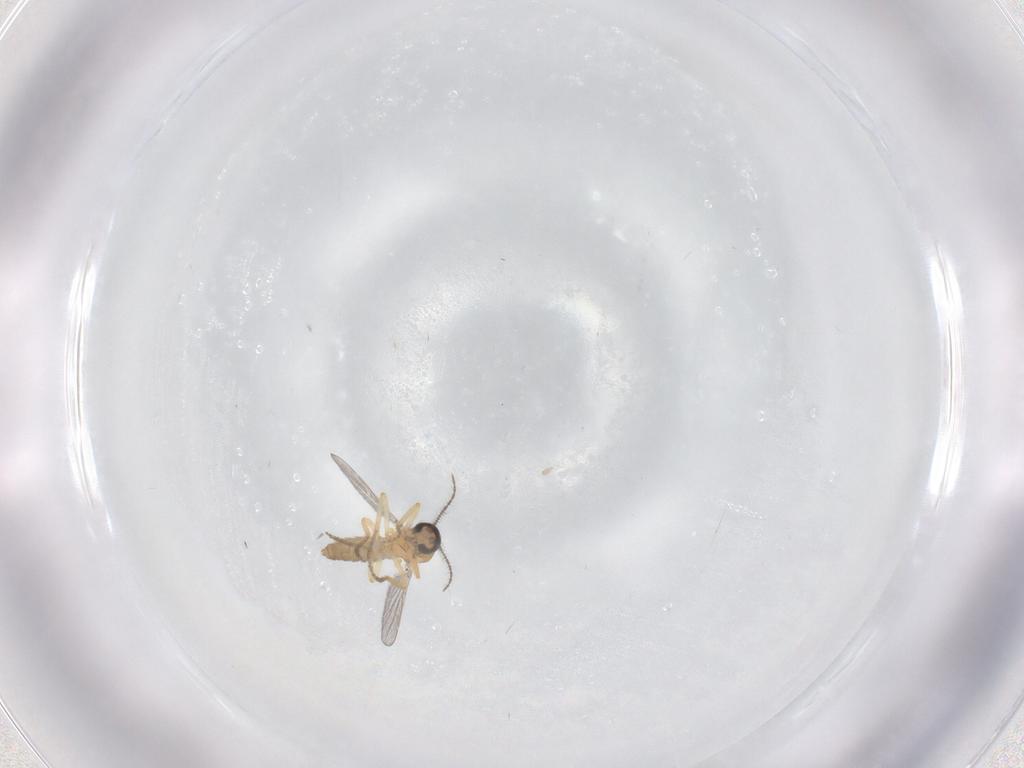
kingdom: Animalia
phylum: Arthropoda
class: Insecta
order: Diptera
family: Ceratopogonidae
